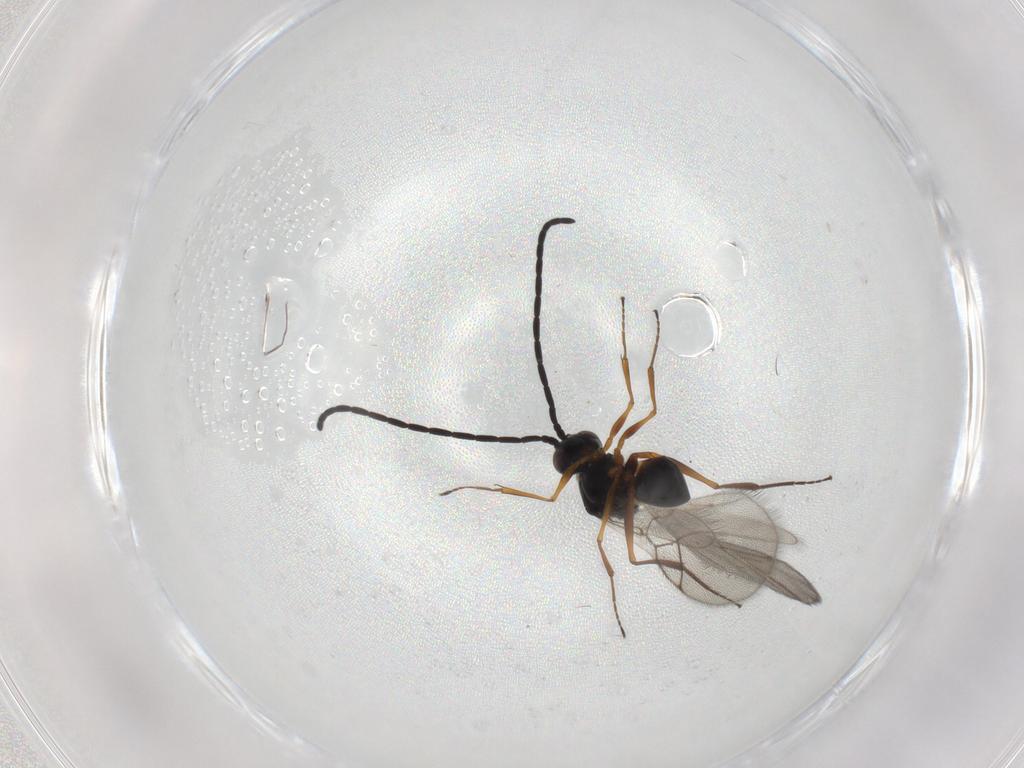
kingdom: Animalia
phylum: Arthropoda
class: Insecta
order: Hymenoptera
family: Figitidae
